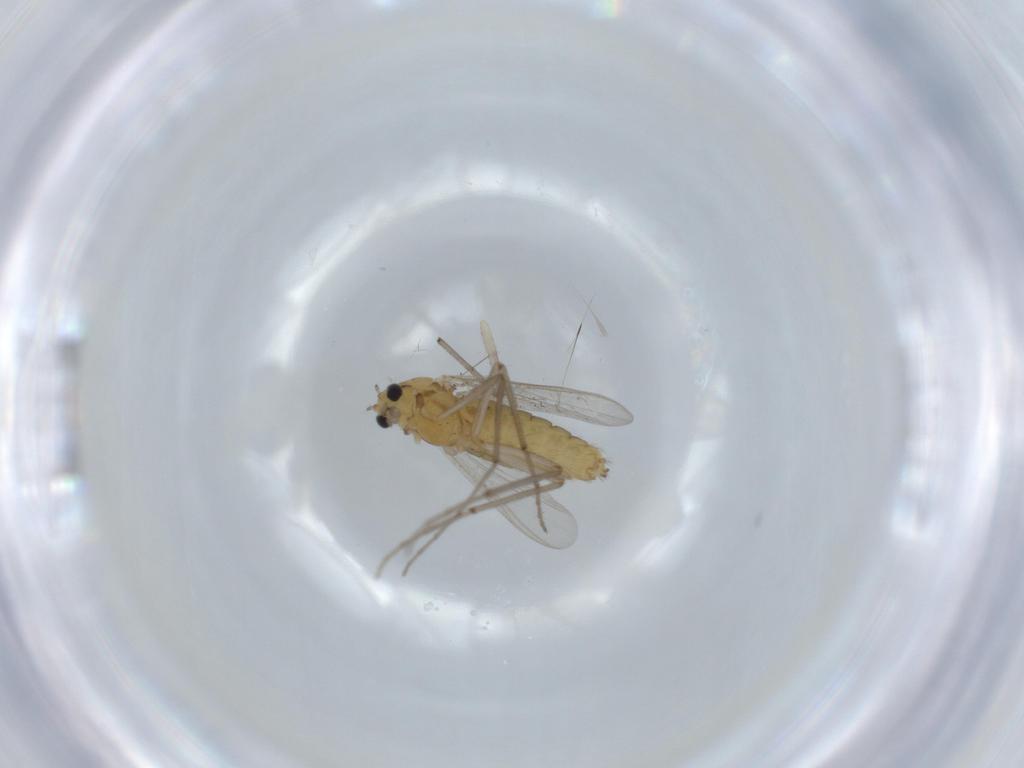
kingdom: Animalia
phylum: Arthropoda
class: Insecta
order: Diptera
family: Chironomidae
